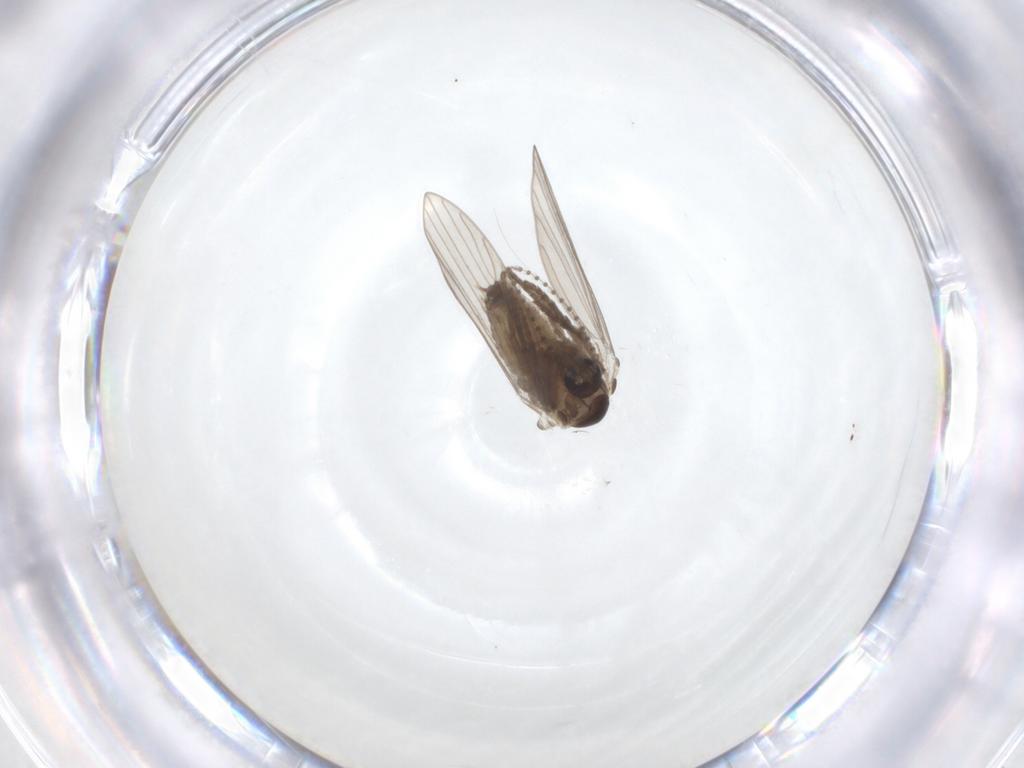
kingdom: Animalia
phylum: Arthropoda
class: Insecta
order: Diptera
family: Psychodidae
